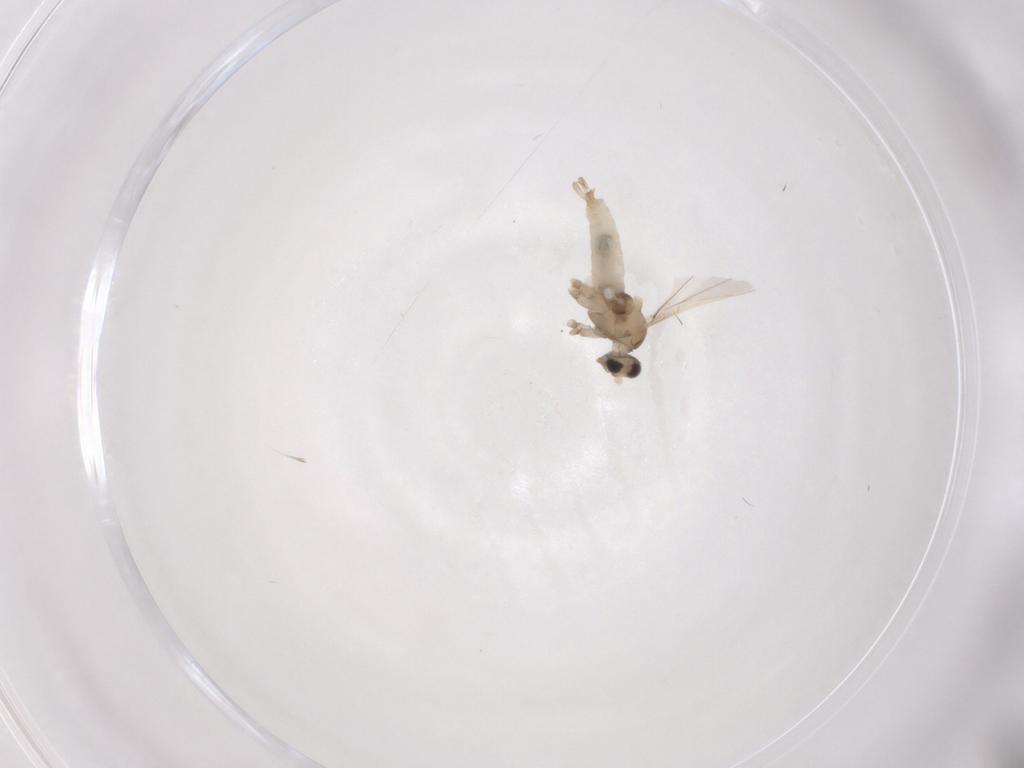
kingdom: Animalia
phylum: Arthropoda
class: Insecta
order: Diptera
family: Cecidomyiidae
